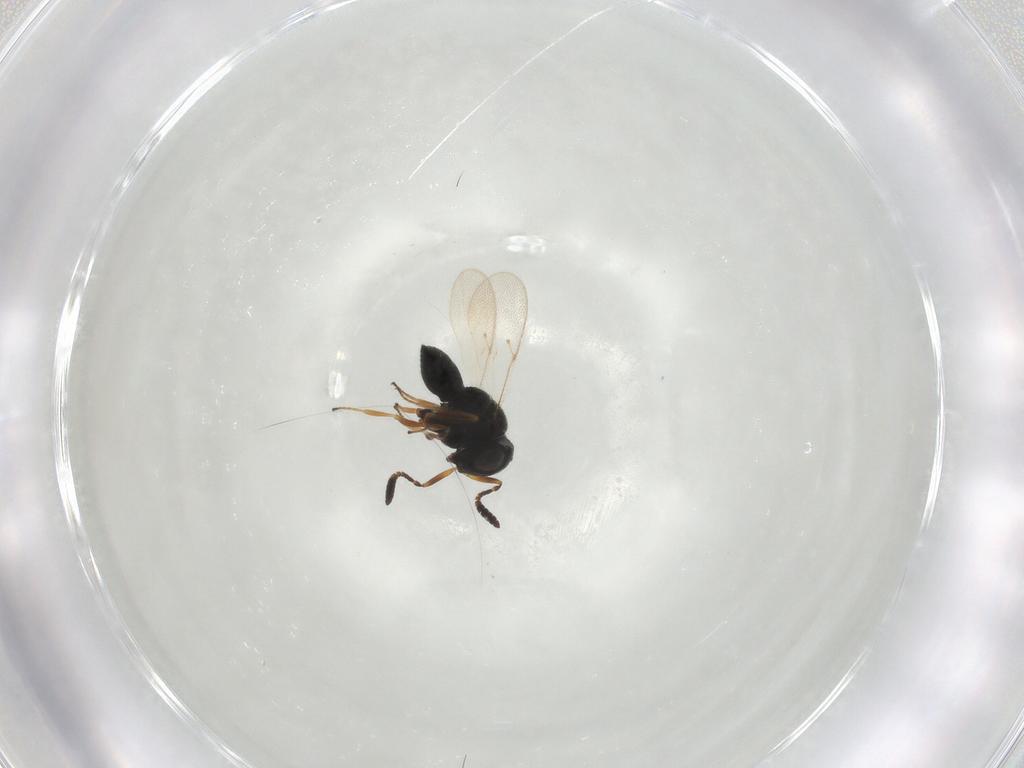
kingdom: Animalia
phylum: Arthropoda
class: Insecta
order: Hymenoptera
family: Scelionidae
